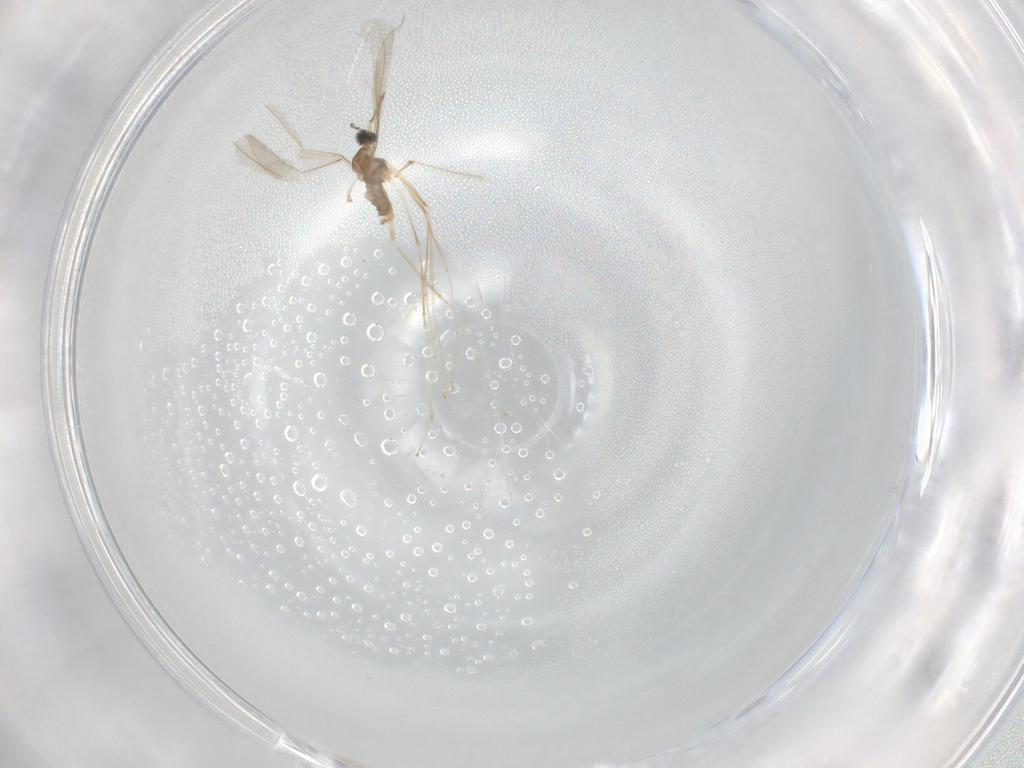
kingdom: Animalia
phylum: Arthropoda
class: Insecta
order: Diptera
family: Cecidomyiidae
